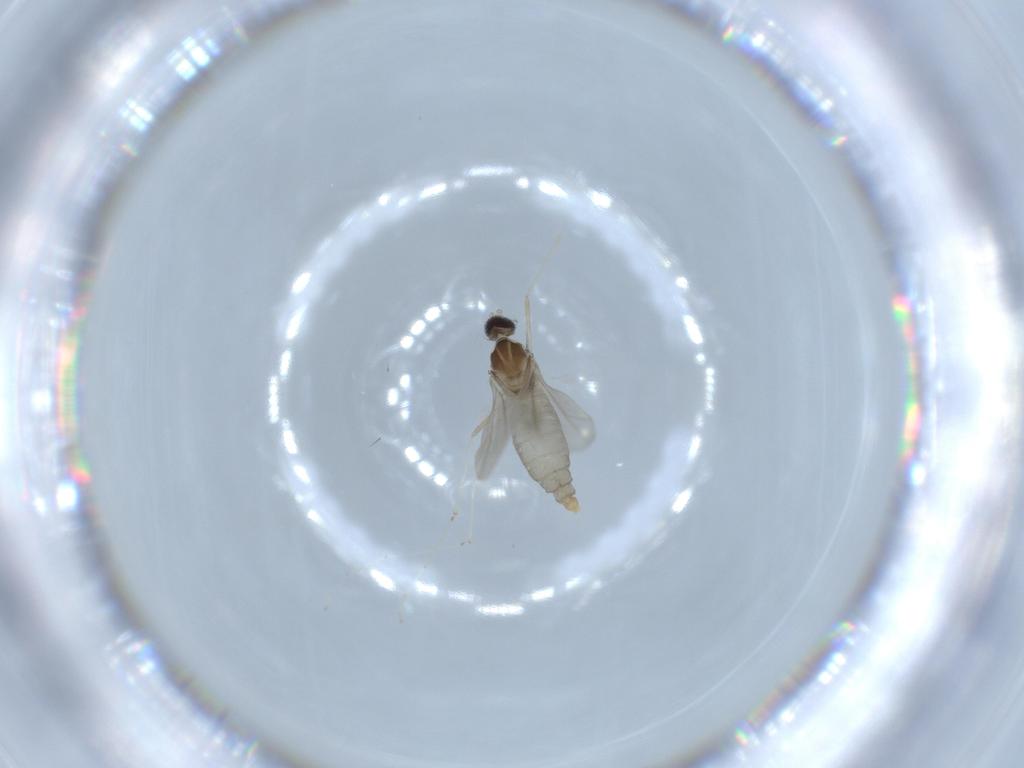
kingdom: Animalia
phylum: Arthropoda
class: Insecta
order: Diptera
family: Cecidomyiidae
